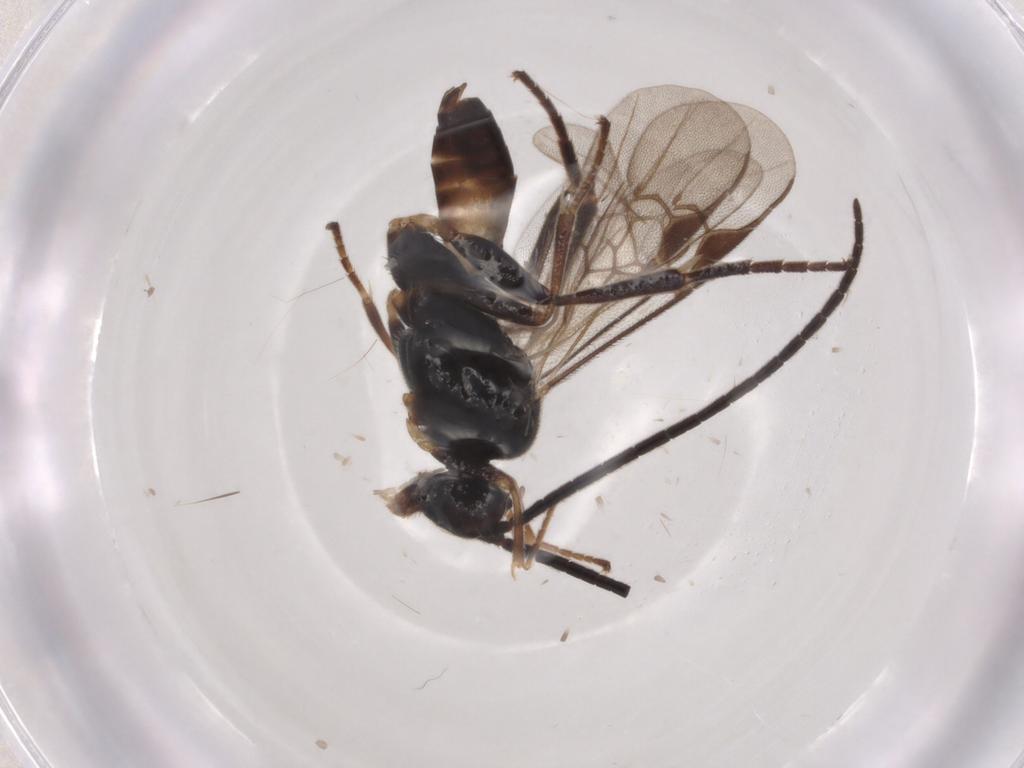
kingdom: Animalia
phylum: Arthropoda
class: Insecta
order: Hymenoptera
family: Braconidae
